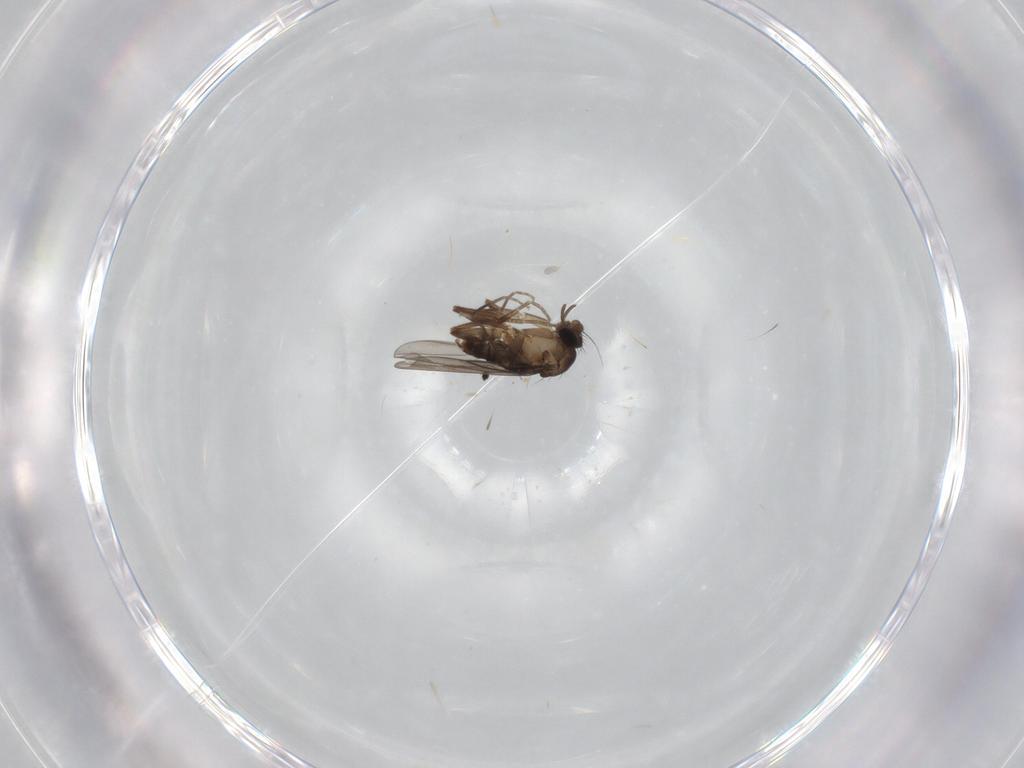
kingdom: Animalia
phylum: Arthropoda
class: Insecta
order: Diptera
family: Phoridae
